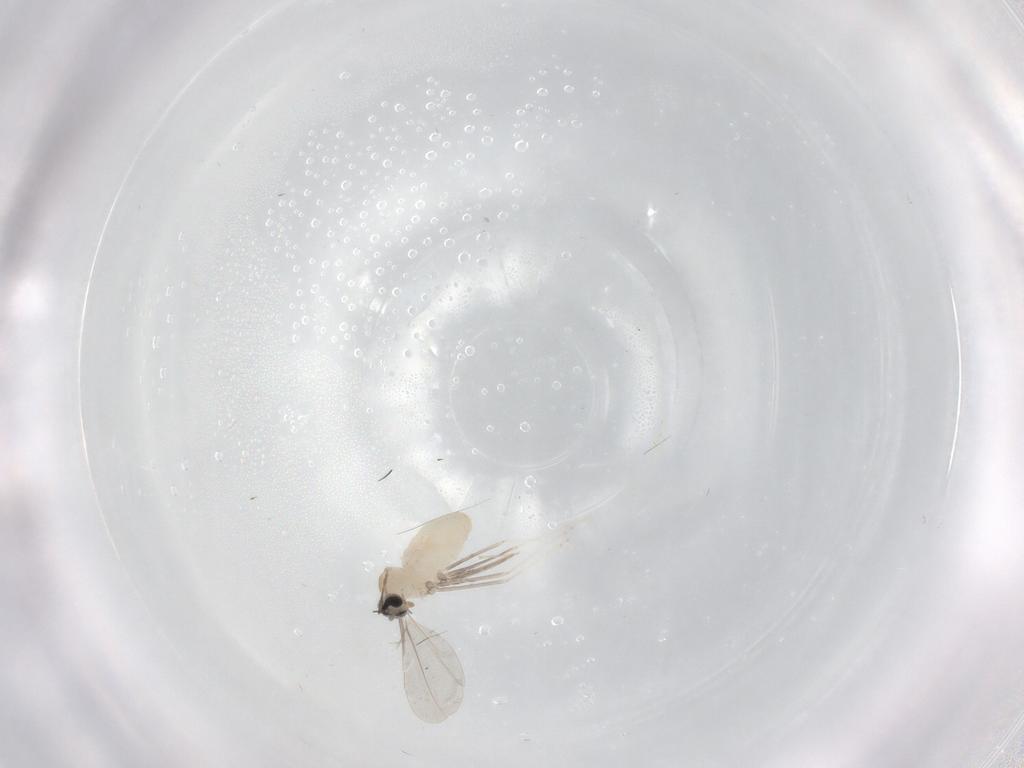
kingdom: Animalia
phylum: Arthropoda
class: Insecta
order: Diptera
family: Cecidomyiidae
